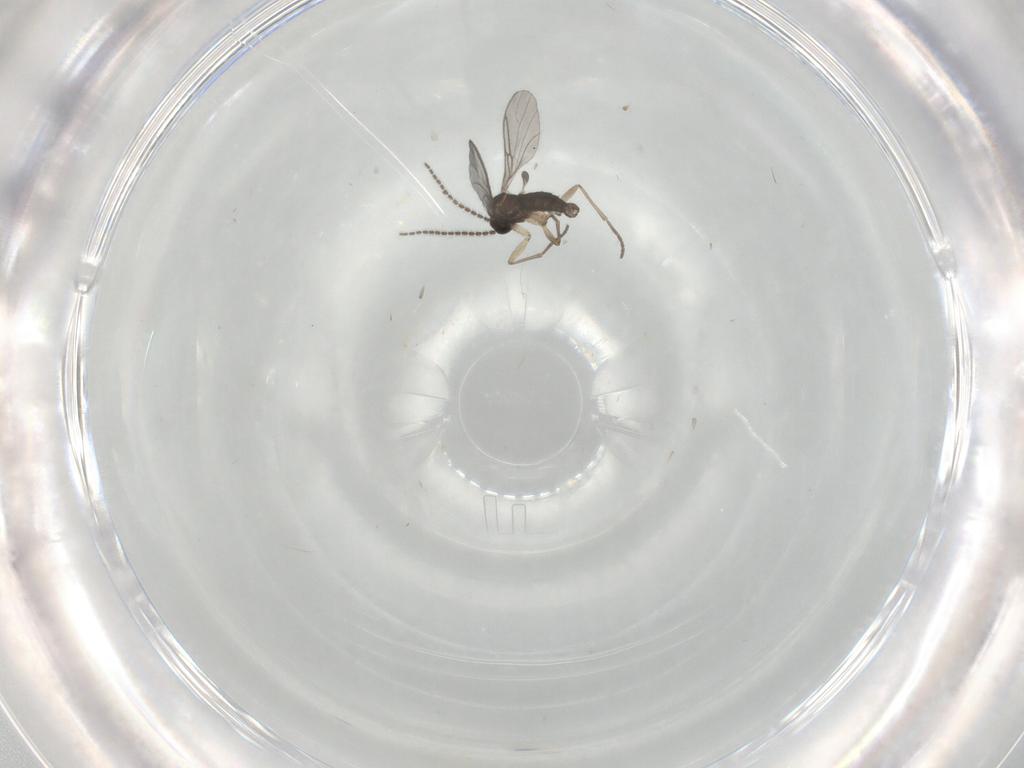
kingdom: Animalia
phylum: Arthropoda
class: Insecta
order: Diptera
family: Sciaridae
